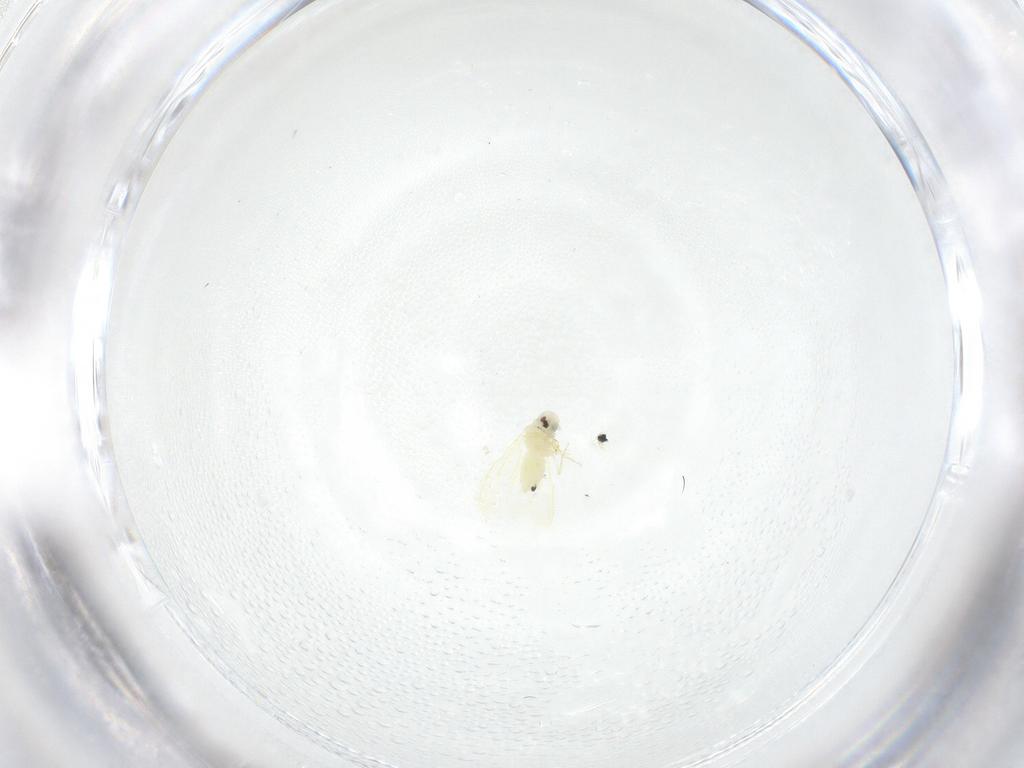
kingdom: Animalia
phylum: Arthropoda
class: Insecta
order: Hemiptera
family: Aleyrodidae
